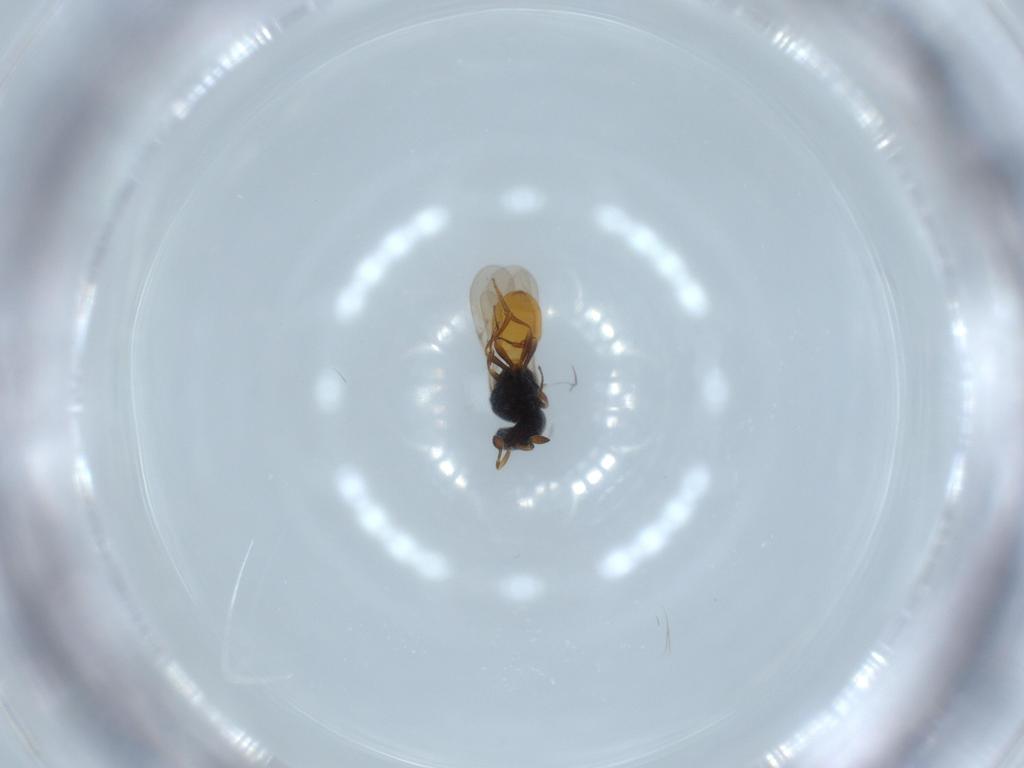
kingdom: Animalia
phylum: Arthropoda
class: Insecta
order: Hymenoptera
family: Scelionidae
